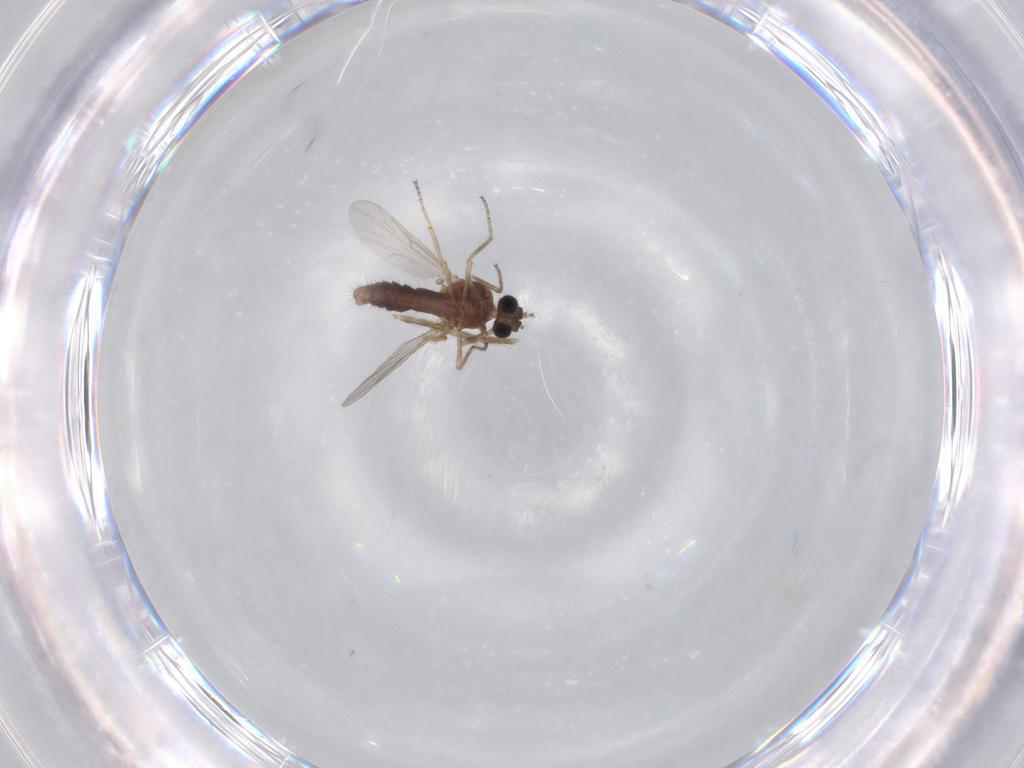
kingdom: Animalia
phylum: Arthropoda
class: Insecta
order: Diptera
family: Ceratopogonidae
